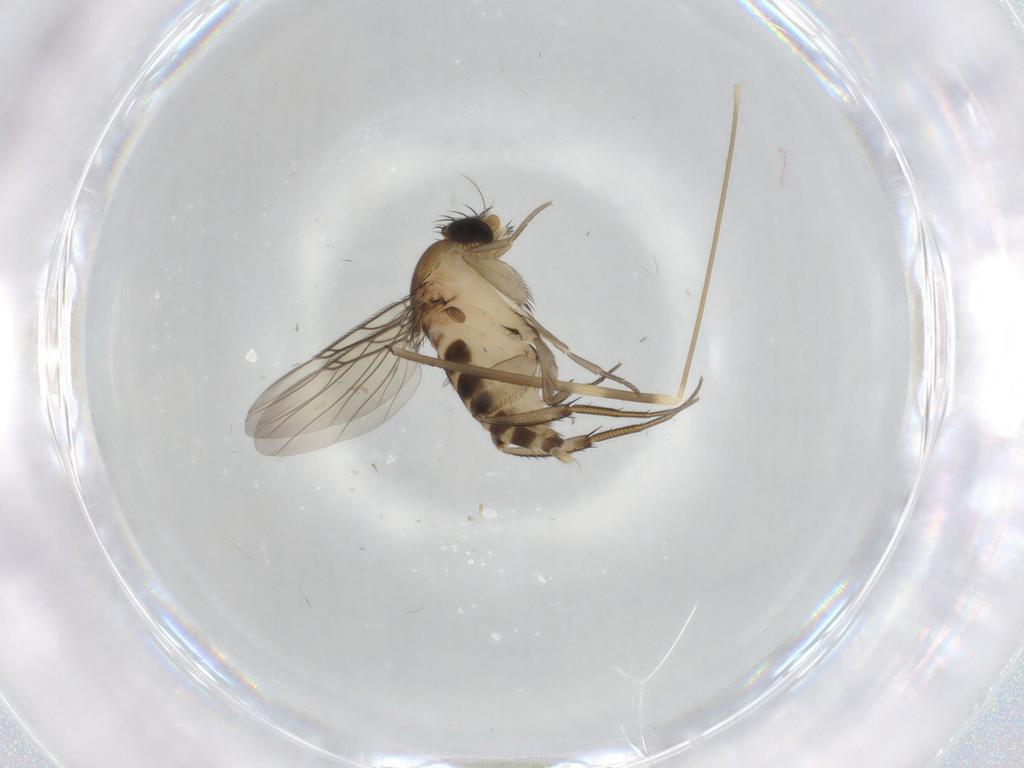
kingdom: Animalia
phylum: Arthropoda
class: Insecta
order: Diptera
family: Phoridae
